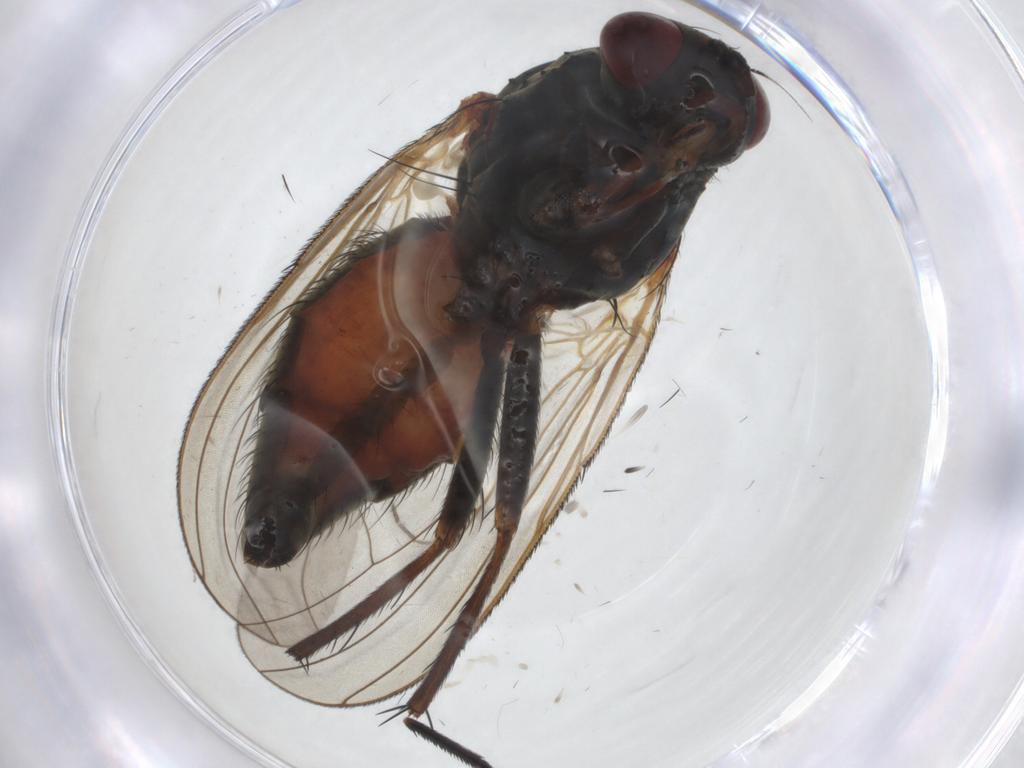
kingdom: Animalia
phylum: Arthropoda
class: Insecta
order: Diptera
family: Anthomyiidae
